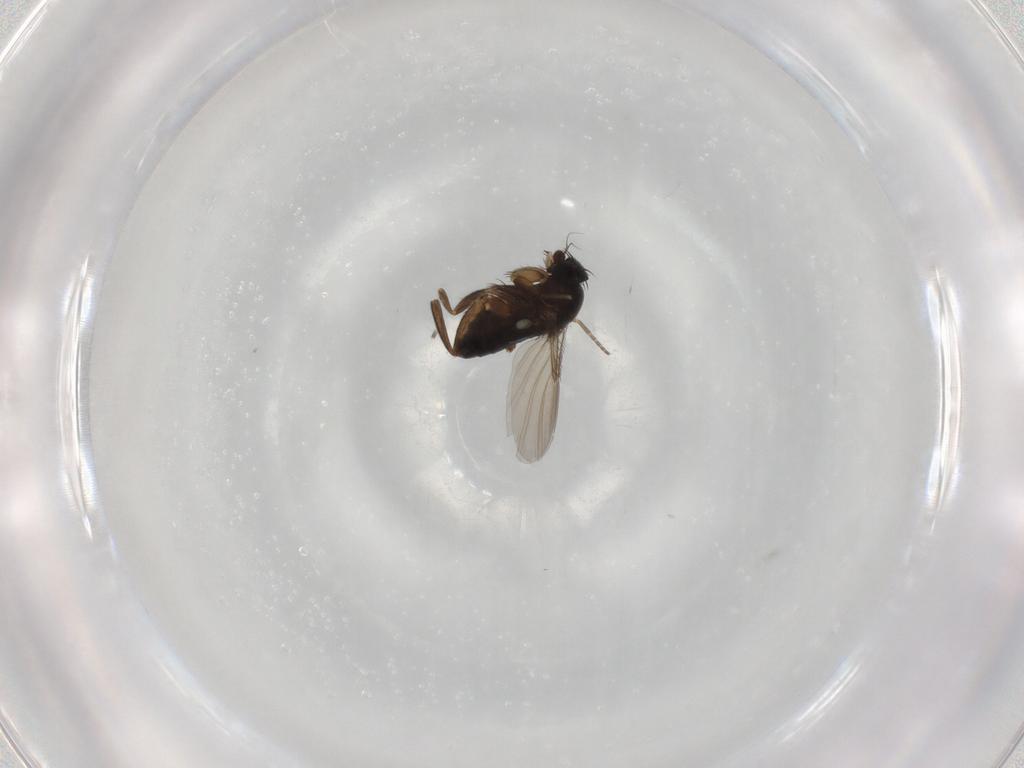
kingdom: Animalia
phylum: Arthropoda
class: Insecta
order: Diptera
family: Phoridae
